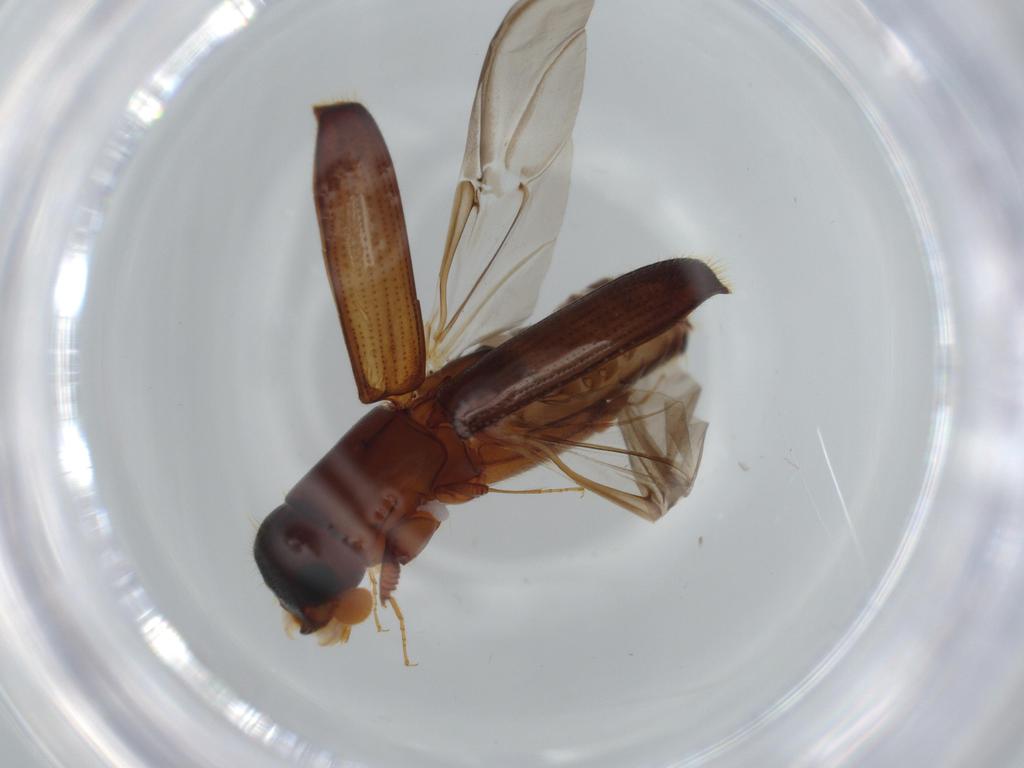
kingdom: Animalia
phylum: Arthropoda
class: Insecta
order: Coleoptera
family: Curculionidae
